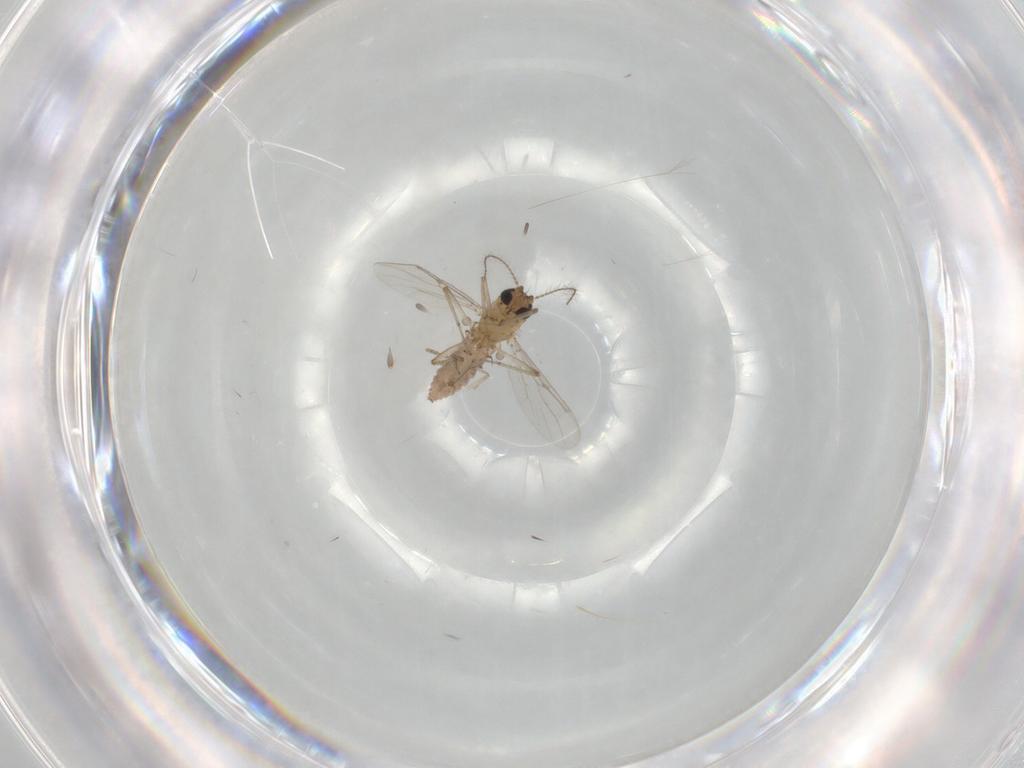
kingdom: Animalia
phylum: Arthropoda
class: Insecta
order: Diptera
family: Psychodidae
